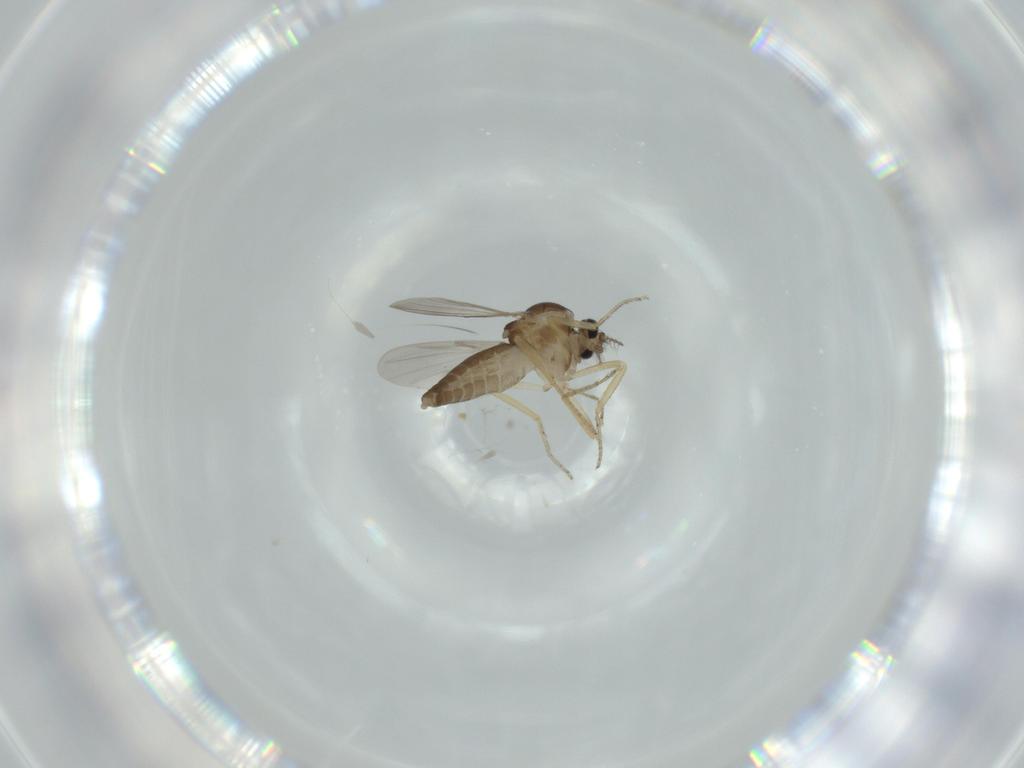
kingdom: Animalia
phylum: Arthropoda
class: Insecta
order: Diptera
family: Ceratopogonidae
